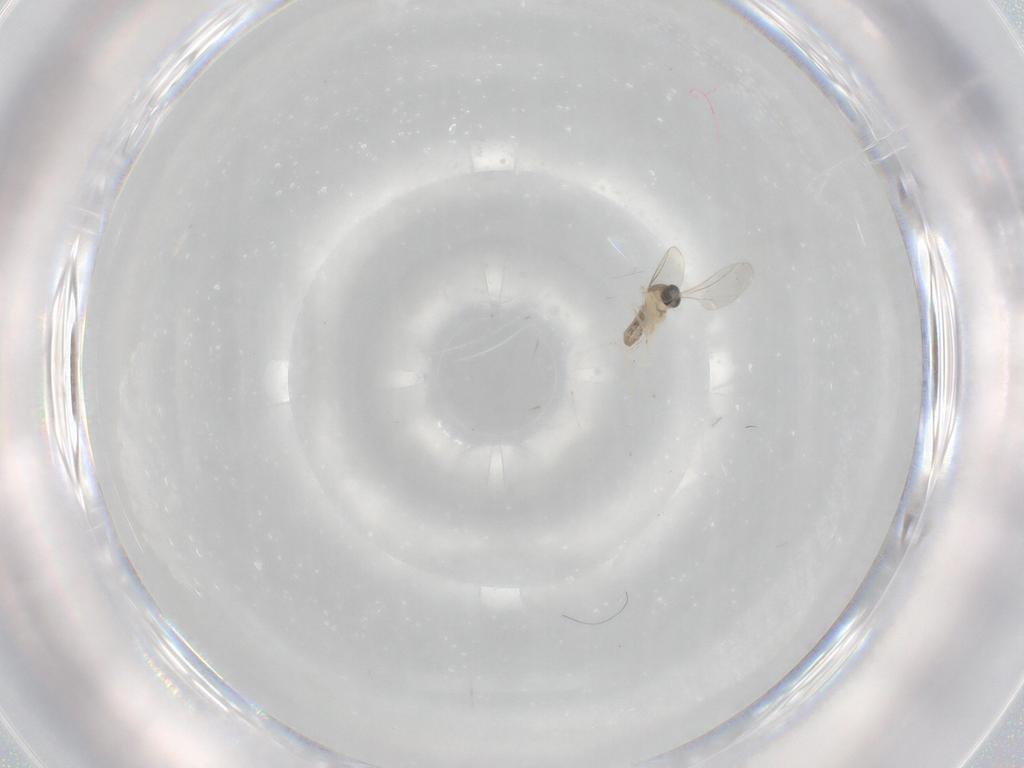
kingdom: Animalia
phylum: Arthropoda
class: Insecta
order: Diptera
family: Cecidomyiidae
